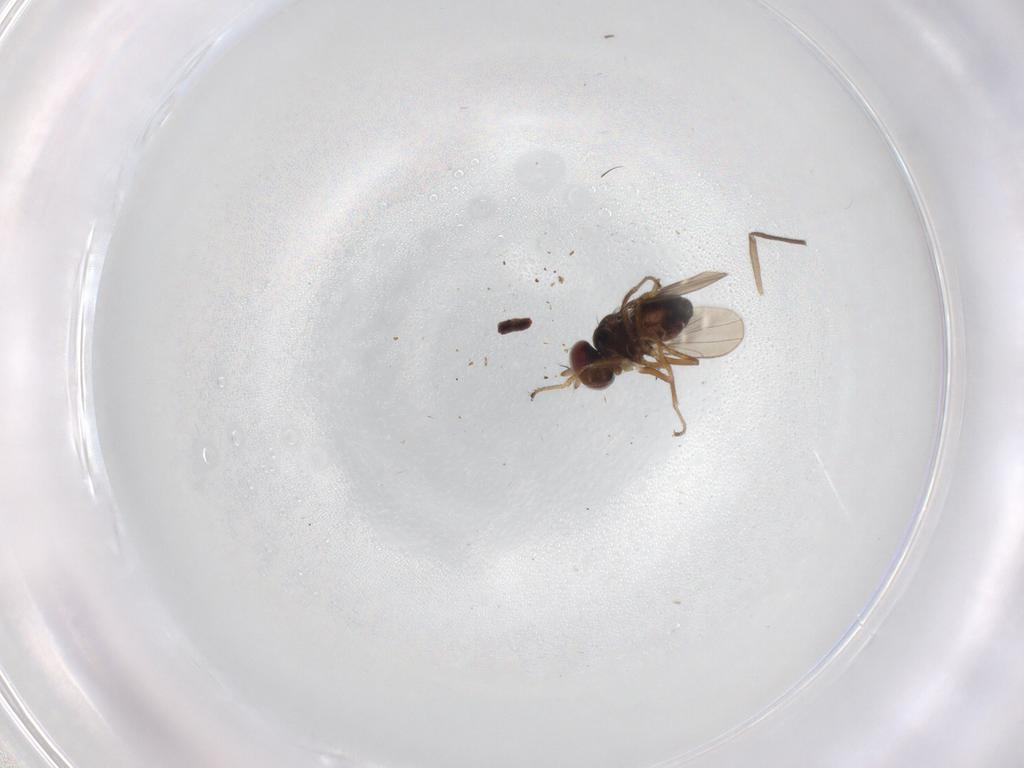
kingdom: Animalia
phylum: Arthropoda
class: Insecta
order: Diptera
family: Ephydridae
